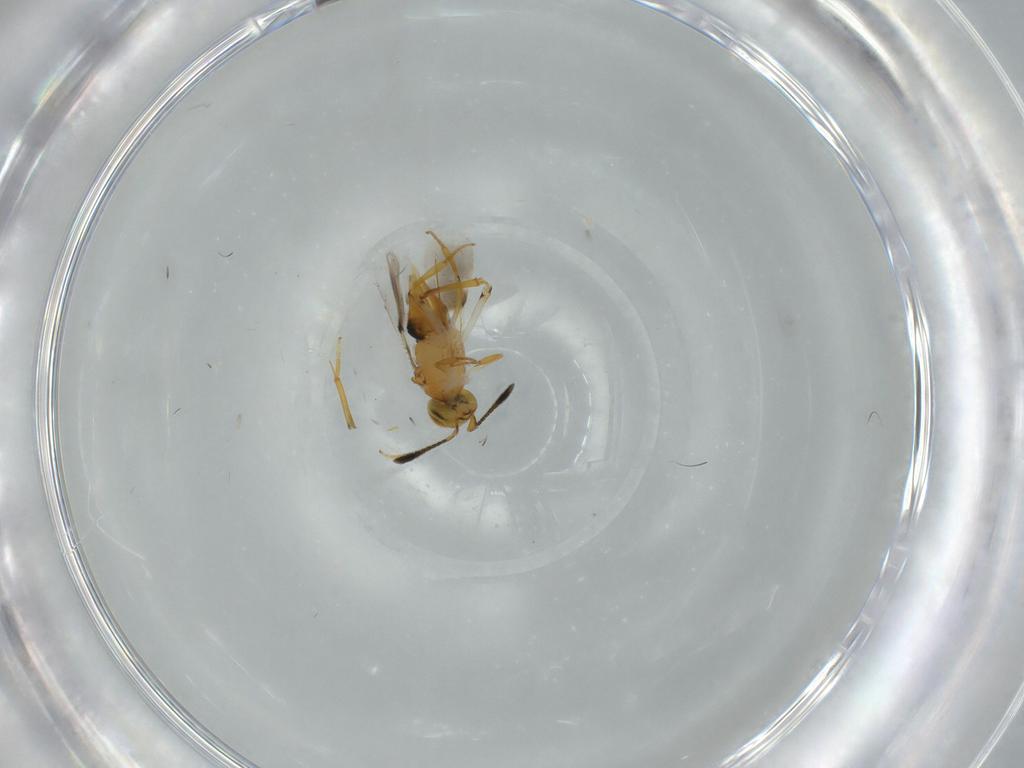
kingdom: Animalia
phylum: Arthropoda
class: Insecta
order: Hymenoptera
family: Encyrtidae
